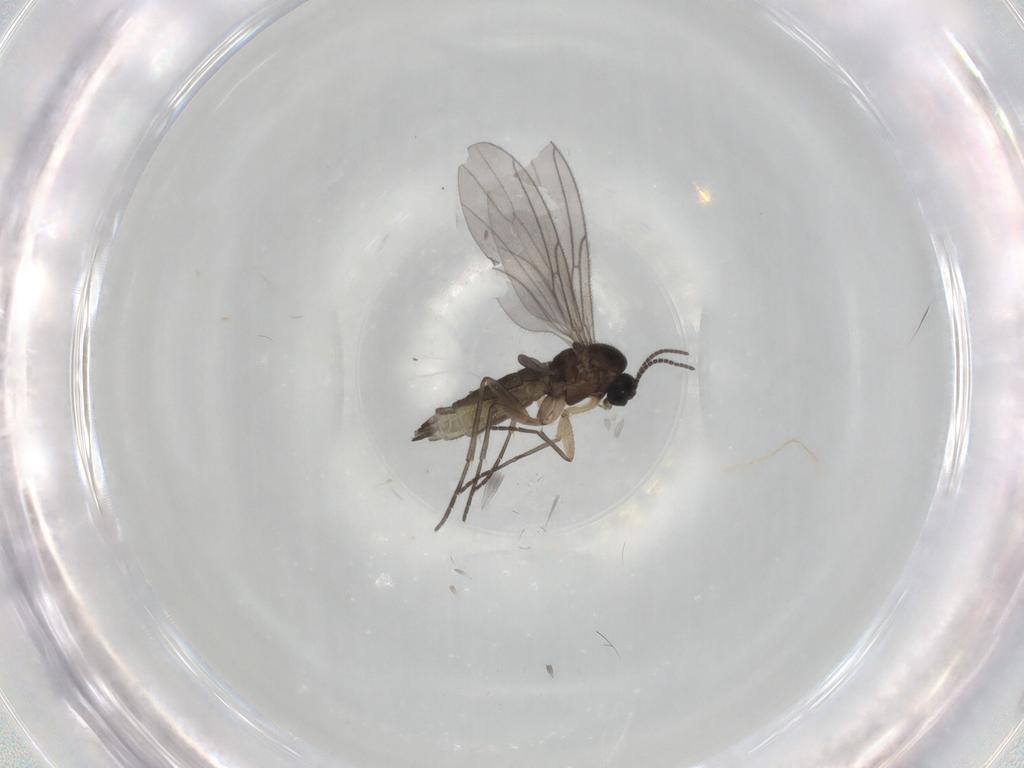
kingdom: Animalia
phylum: Arthropoda
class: Insecta
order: Diptera
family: Sciaridae
